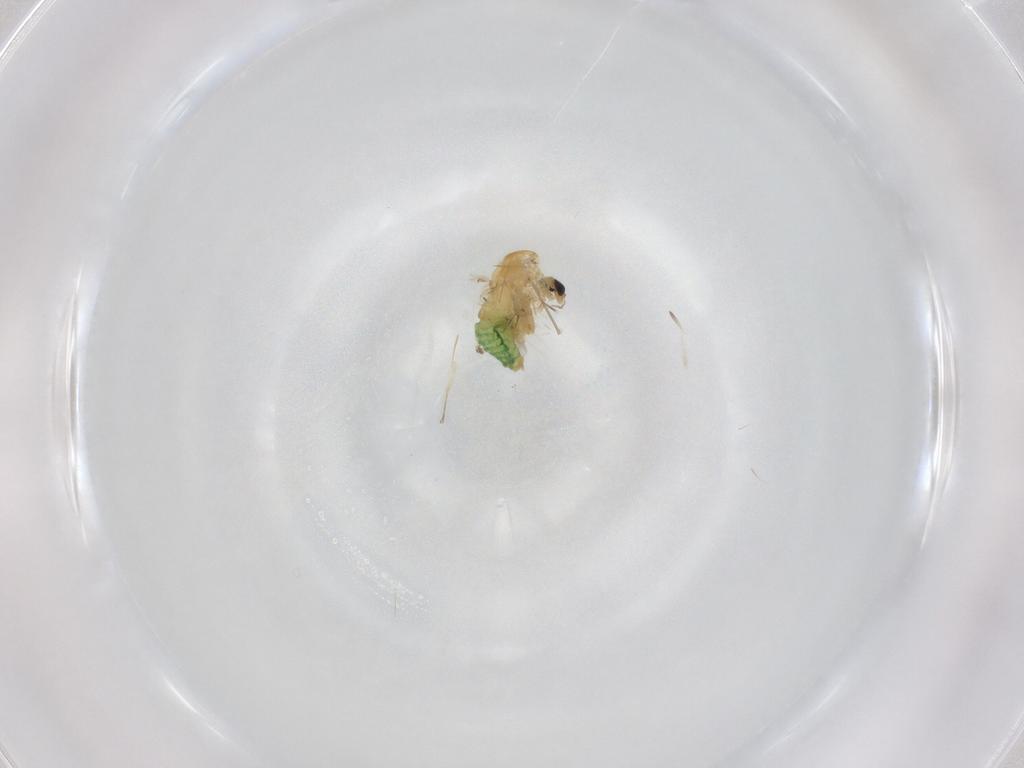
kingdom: Animalia
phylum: Arthropoda
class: Insecta
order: Diptera
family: Chironomidae
